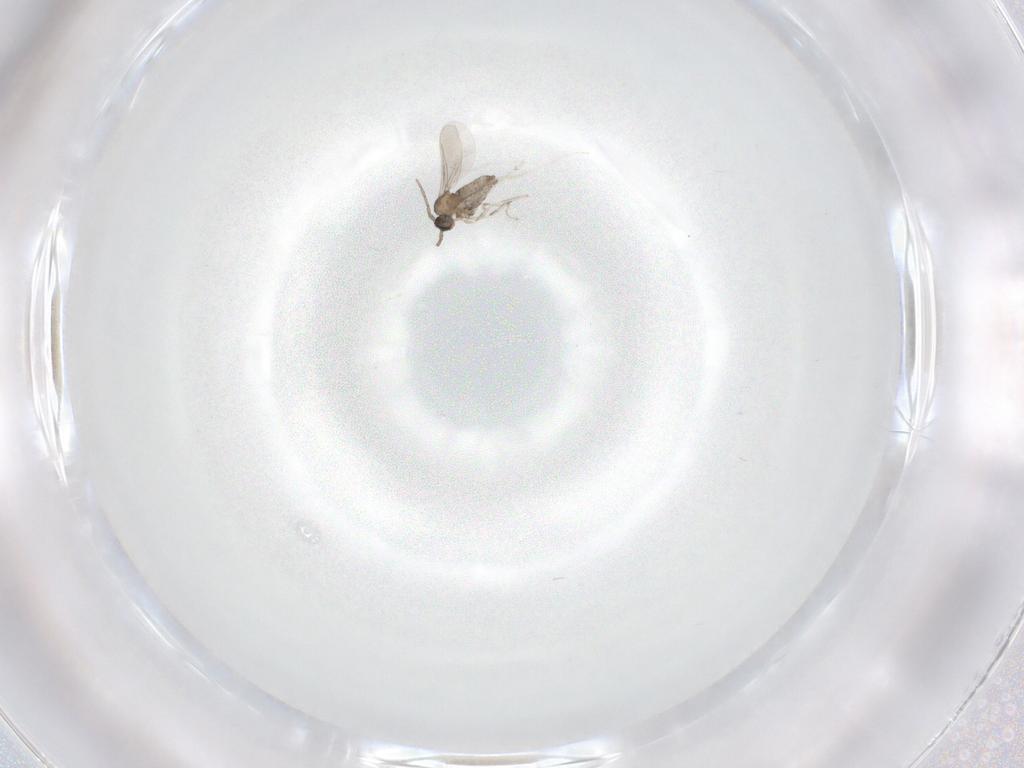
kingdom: Animalia
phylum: Arthropoda
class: Insecta
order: Diptera
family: Cecidomyiidae
